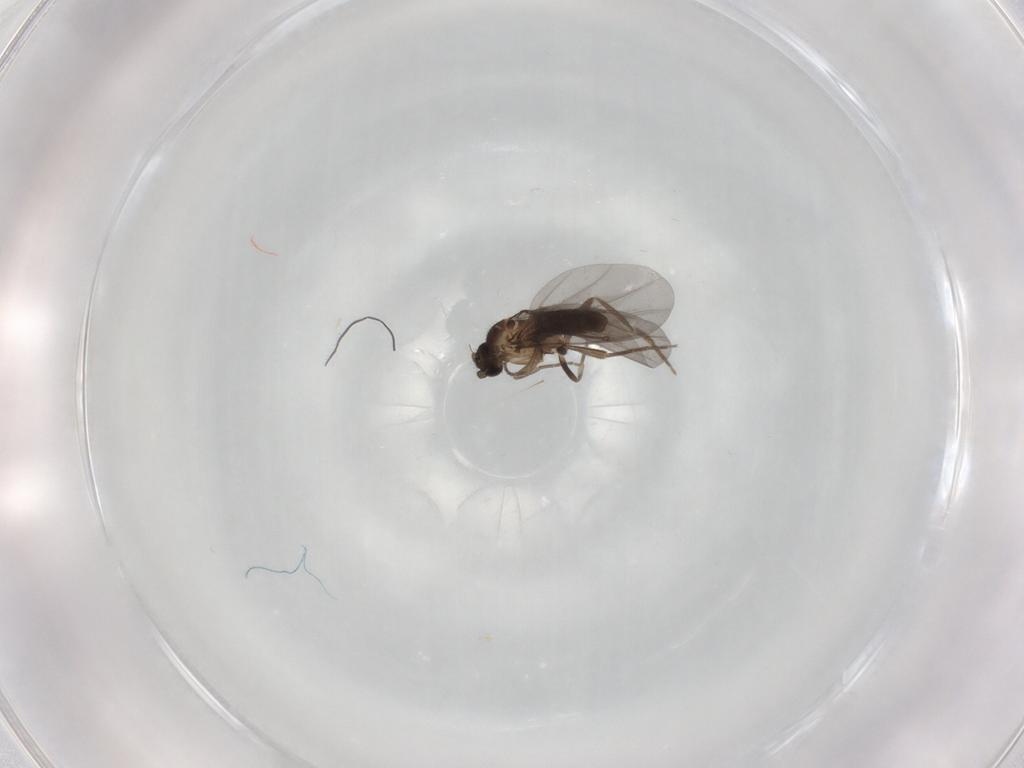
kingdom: Animalia
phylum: Arthropoda
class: Insecta
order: Diptera
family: Phoridae
